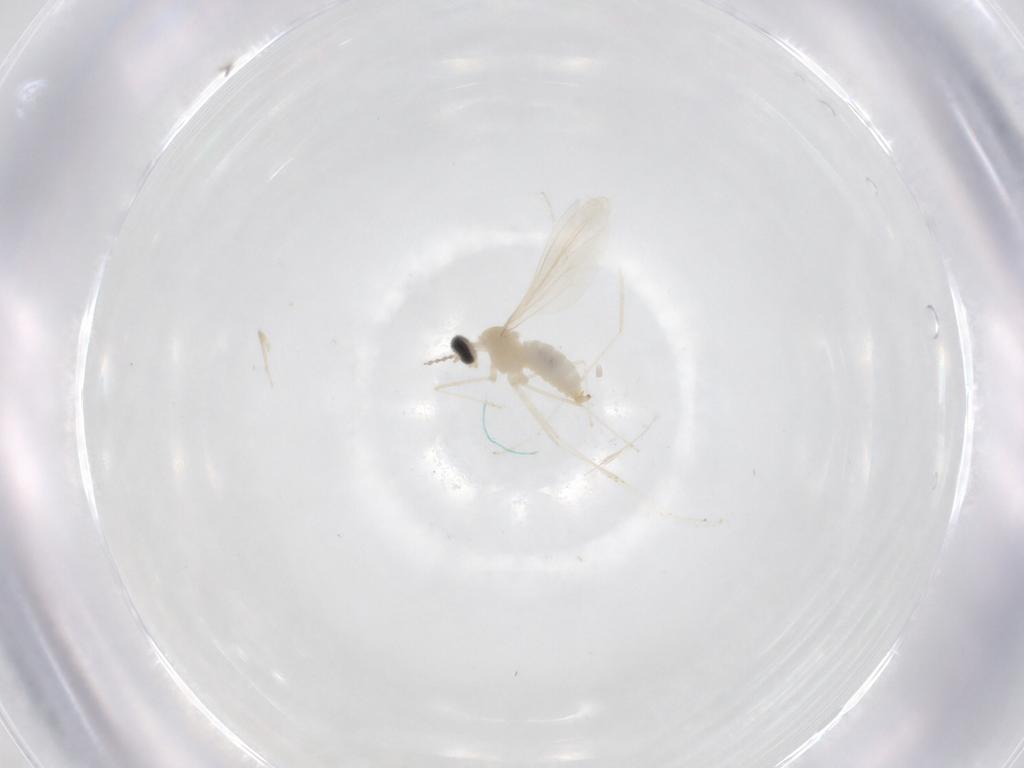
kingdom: Animalia
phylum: Arthropoda
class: Insecta
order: Diptera
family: Cecidomyiidae
